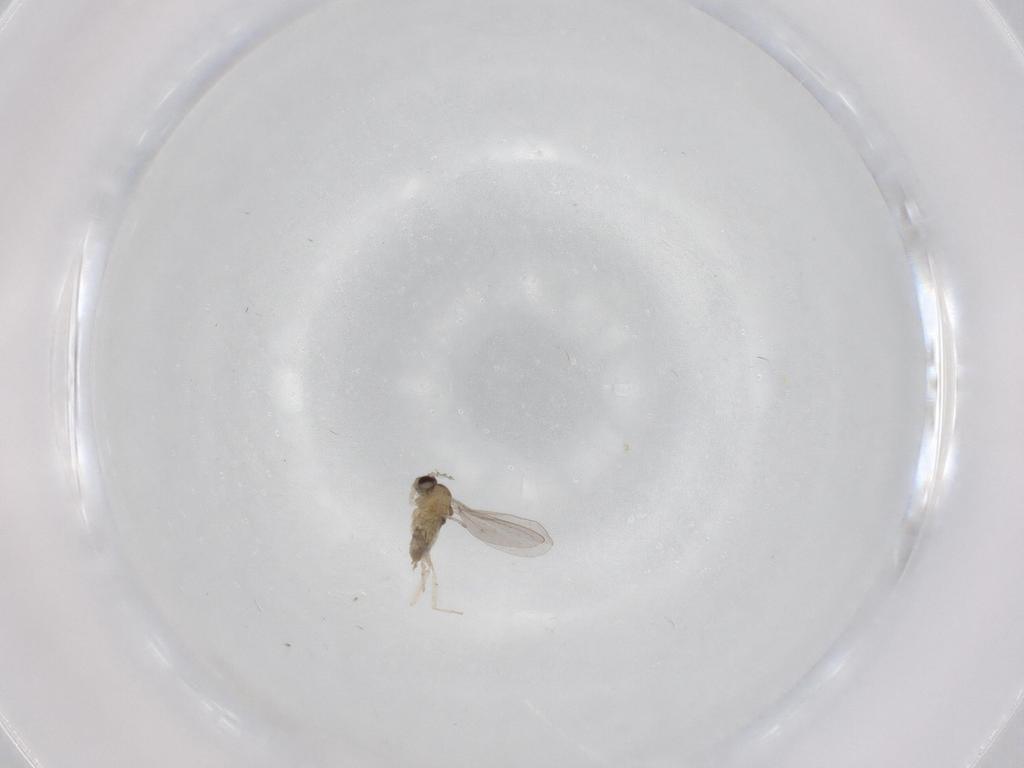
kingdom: Animalia
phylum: Arthropoda
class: Insecta
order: Diptera
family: Cecidomyiidae
